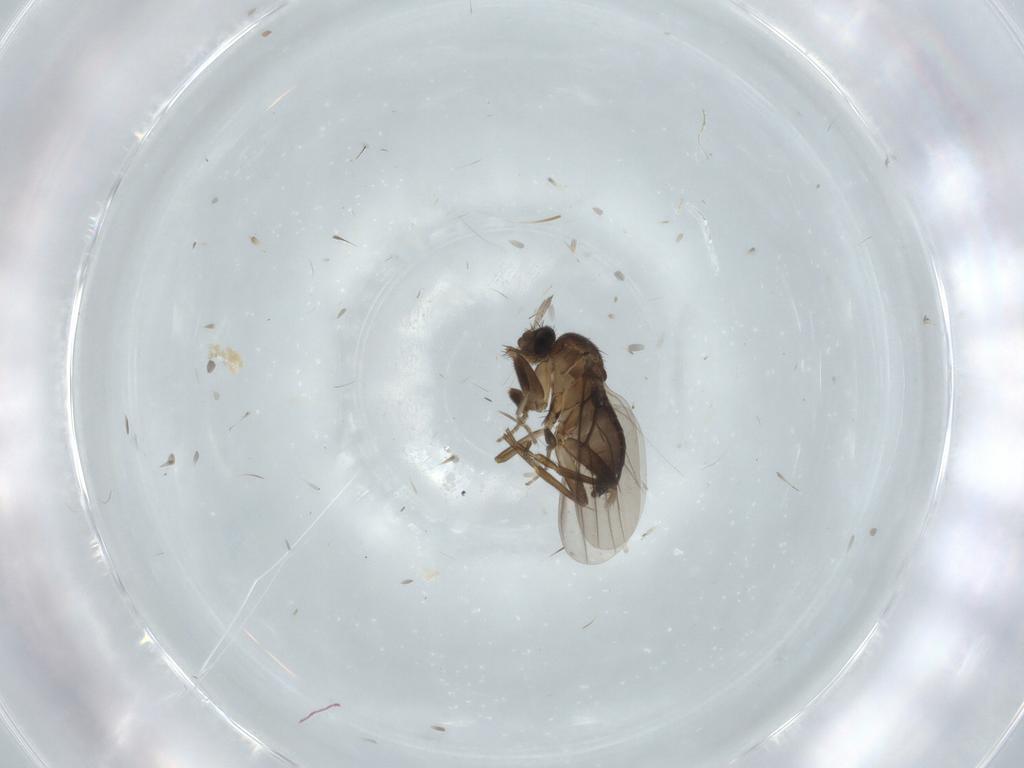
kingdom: Animalia
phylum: Arthropoda
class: Insecta
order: Diptera
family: Phoridae
